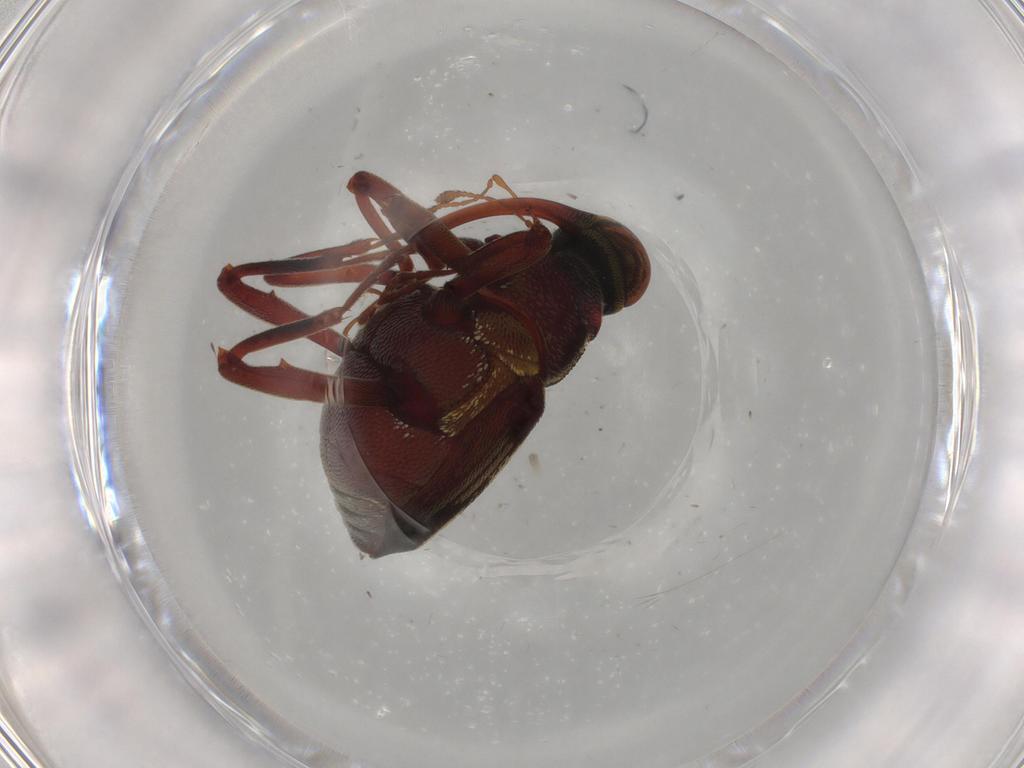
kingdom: Animalia
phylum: Arthropoda
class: Insecta
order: Coleoptera
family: Curculionidae
